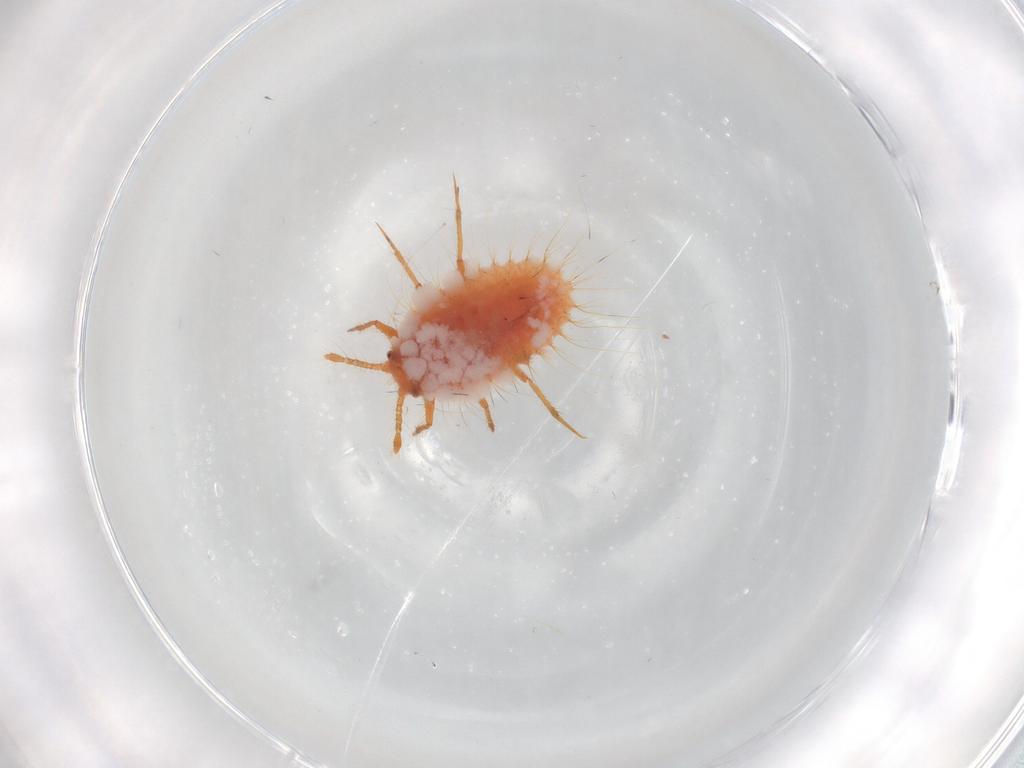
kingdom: Animalia
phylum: Arthropoda
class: Insecta
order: Hemiptera
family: Coccoidea_incertae_sedis
